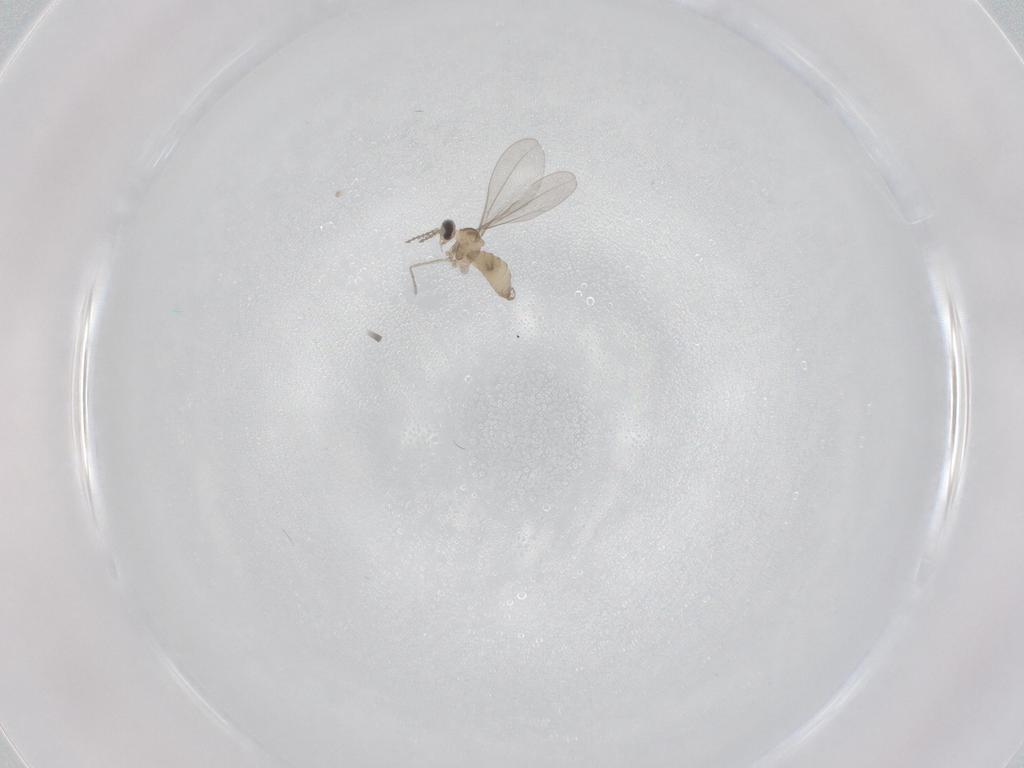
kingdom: Animalia
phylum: Arthropoda
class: Insecta
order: Diptera
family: Cecidomyiidae
